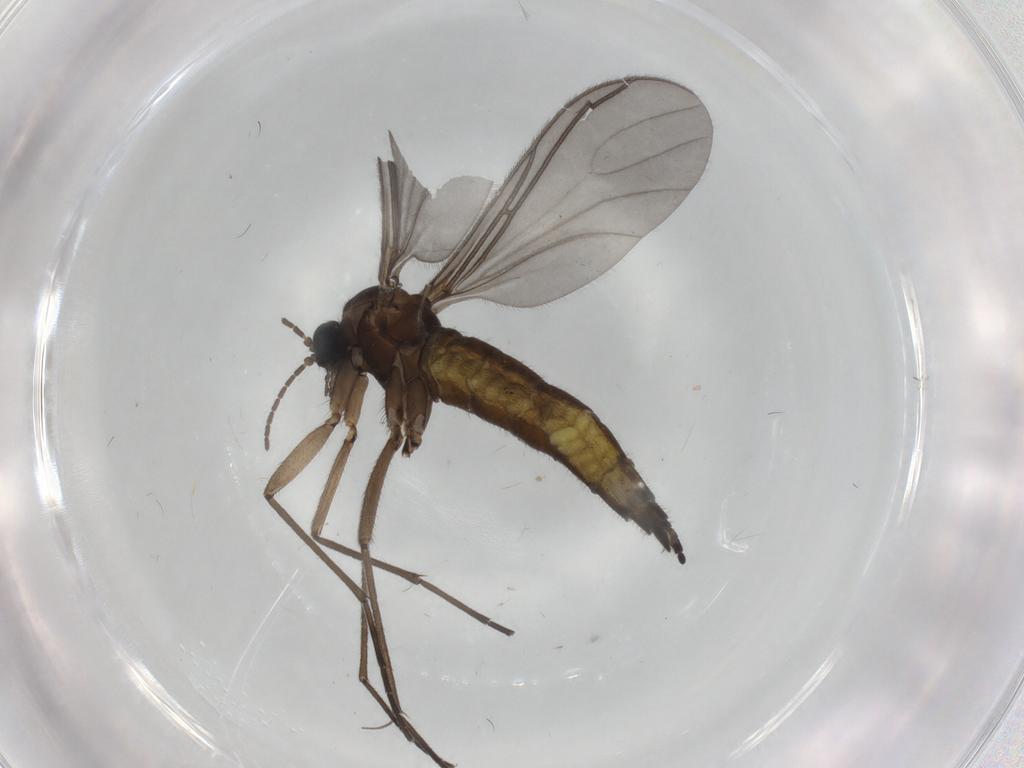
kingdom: Animalia
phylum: Arthropoda
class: Insecta
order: Diptera
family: Sciaridae
